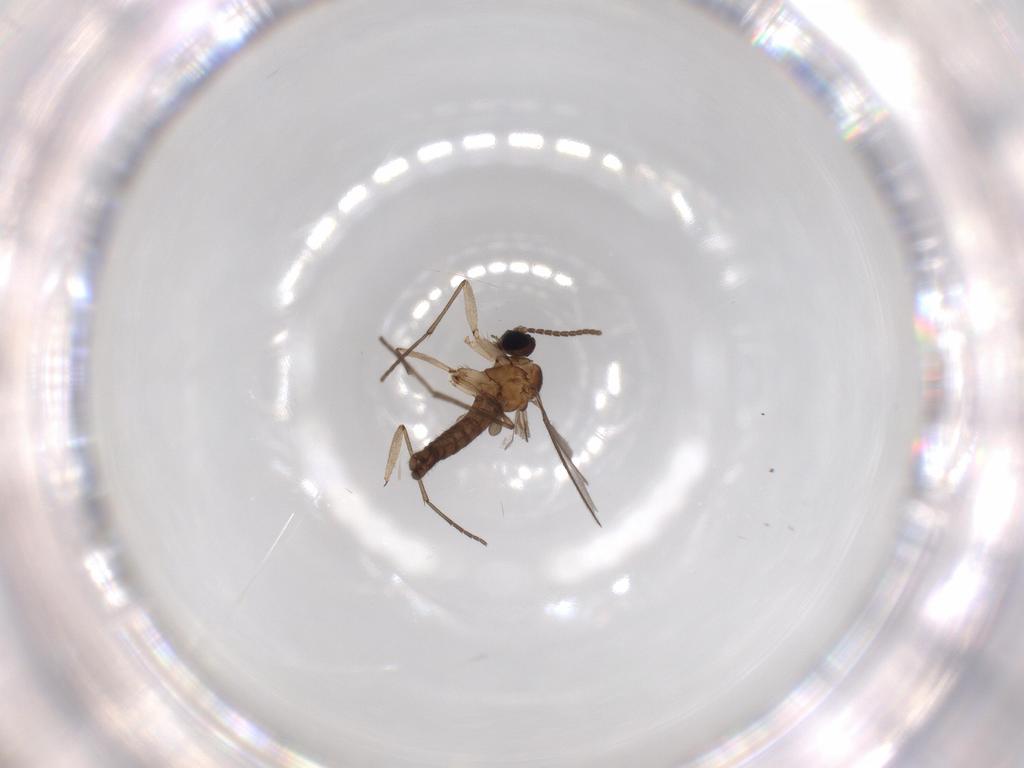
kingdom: Animalia
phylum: Arthropoda
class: Insecta
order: Diptera
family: Sciaridae
